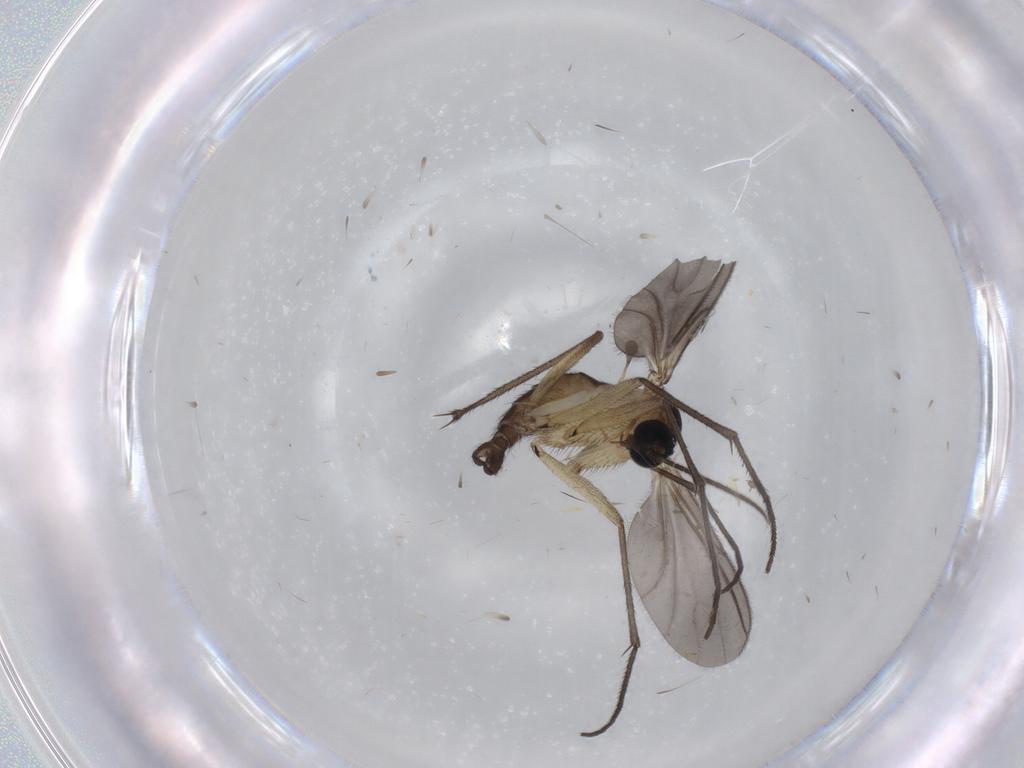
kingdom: Animalia
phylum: Arthropoda
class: Insecta
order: Diptera
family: Sciaridae
